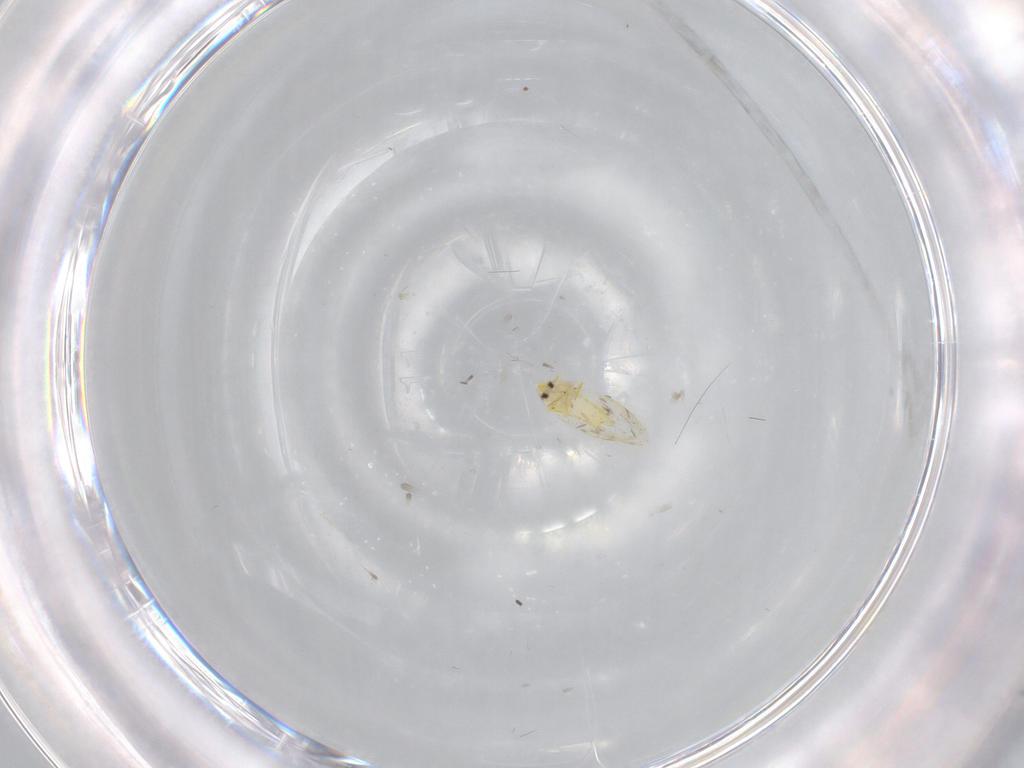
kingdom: Animalia
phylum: Arthropoda
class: Insecta
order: Hemiptera
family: Aleyrodidae
